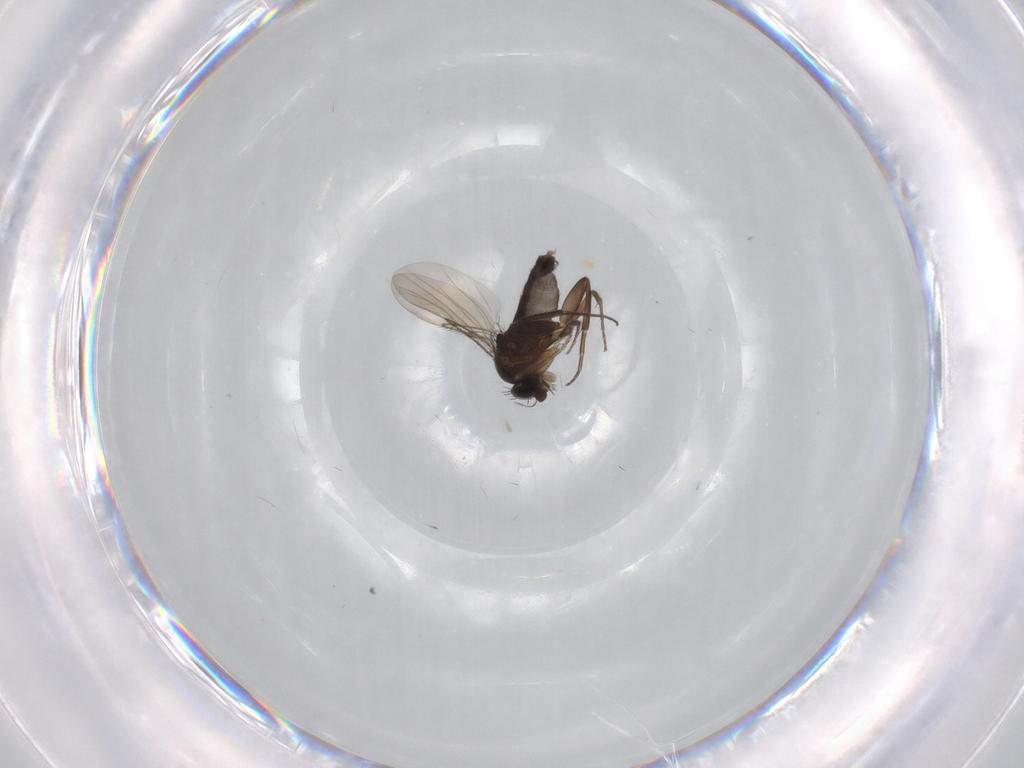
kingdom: Animalia
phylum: Arthropoda
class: Insecta
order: Diptera
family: Phoridae
